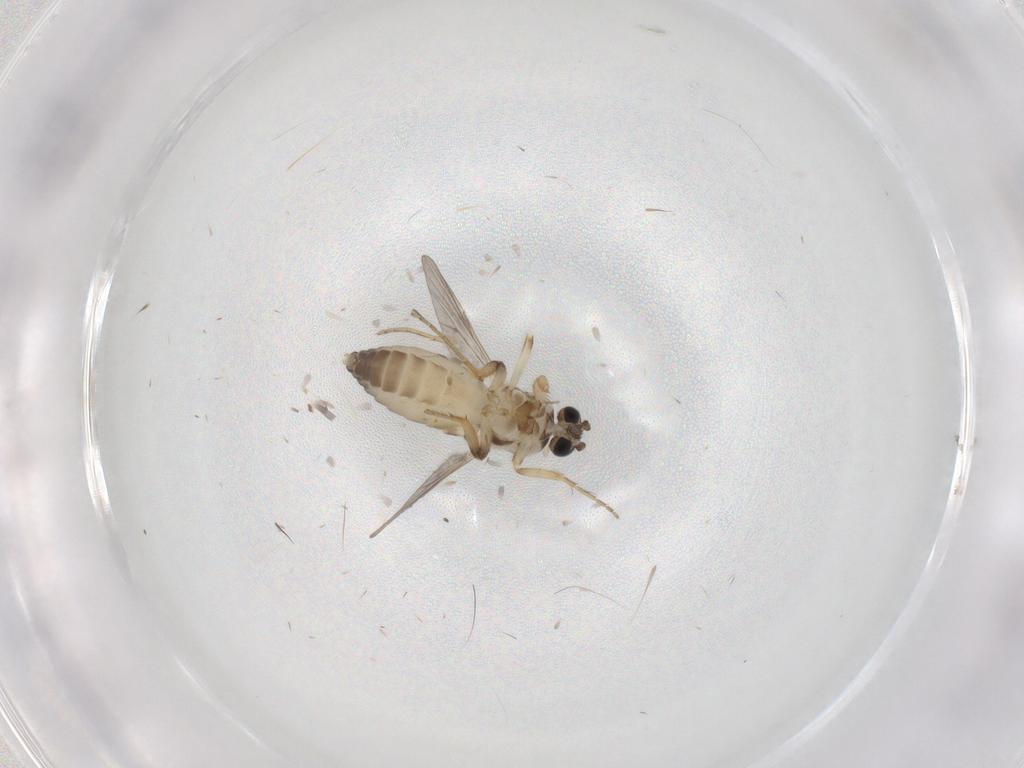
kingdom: Animalia
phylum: Arthropoda
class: Insecta
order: Diptera
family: Ceratopogonidae
